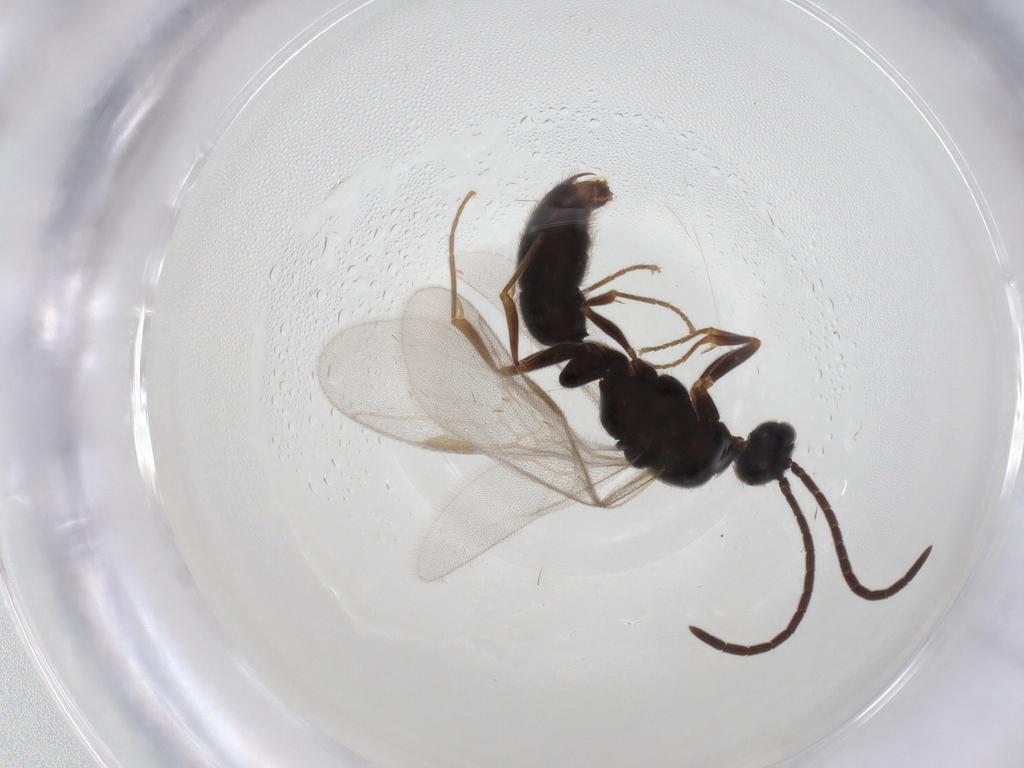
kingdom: Animalia
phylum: Arthropoda
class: Insecta
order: Hymenoptera
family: Formicidae
